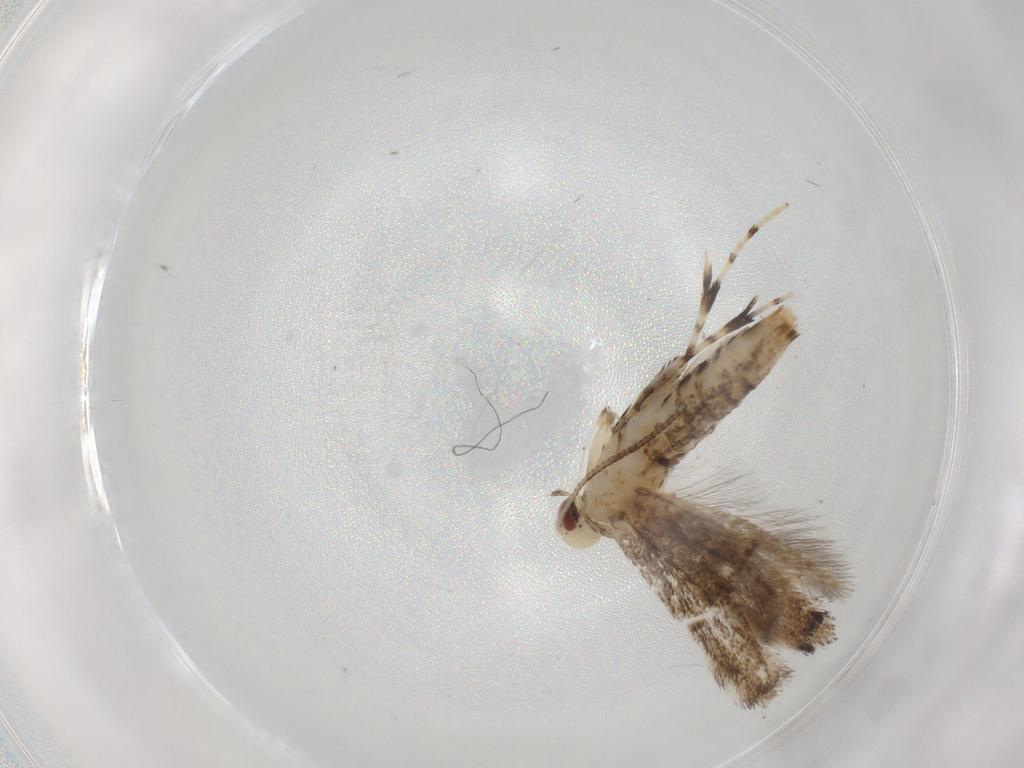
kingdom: Animalia
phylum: Arthropoda
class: Insecta
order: Lepidoptera
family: Gracillariidae
